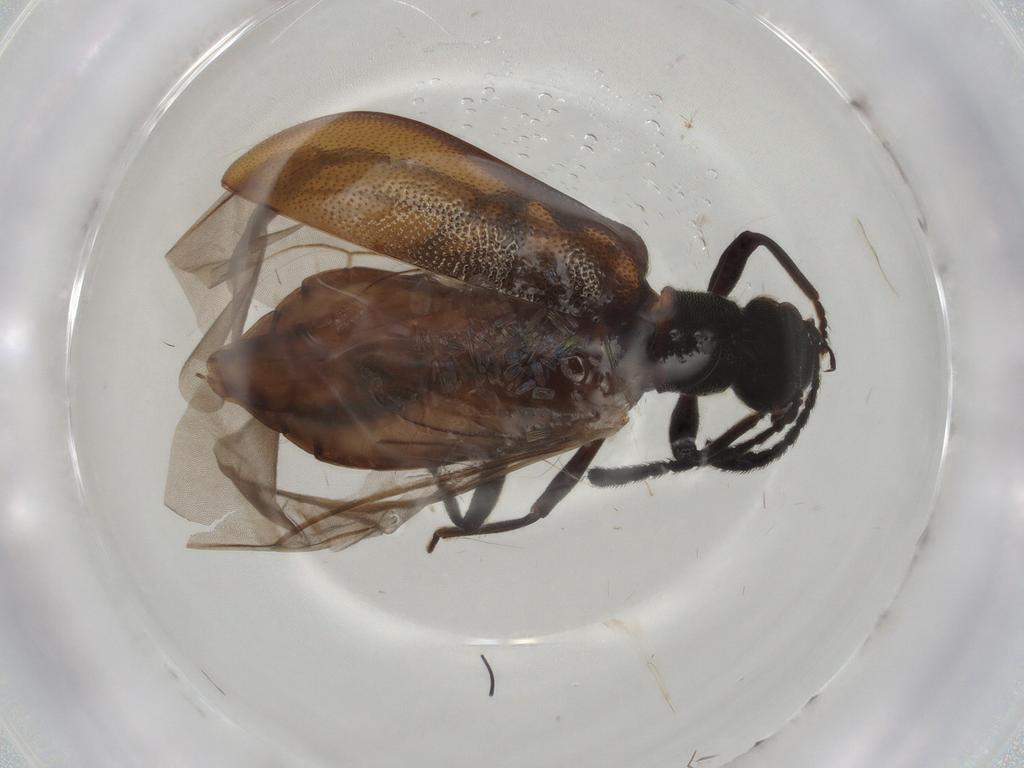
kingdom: Animalia
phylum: Arthropoda
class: Insecta
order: Coleoptera
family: Tenebrionidae
